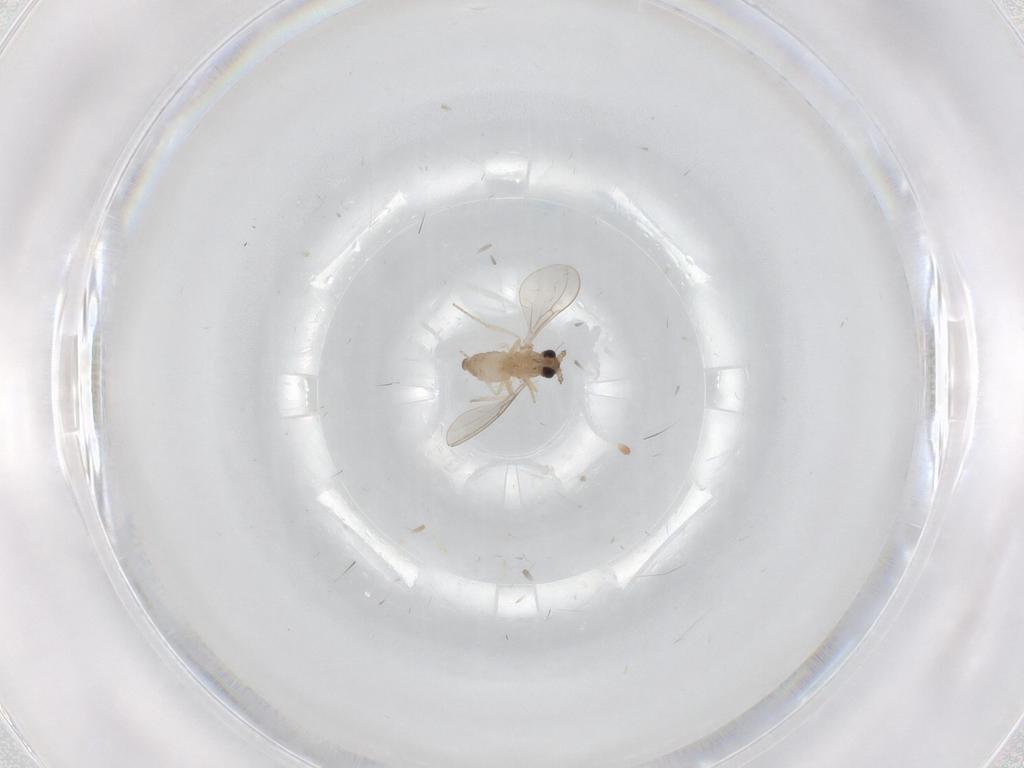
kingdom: Animalia
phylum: Arthropoda
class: Insecta
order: Diptera
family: Cecidomyiidae
